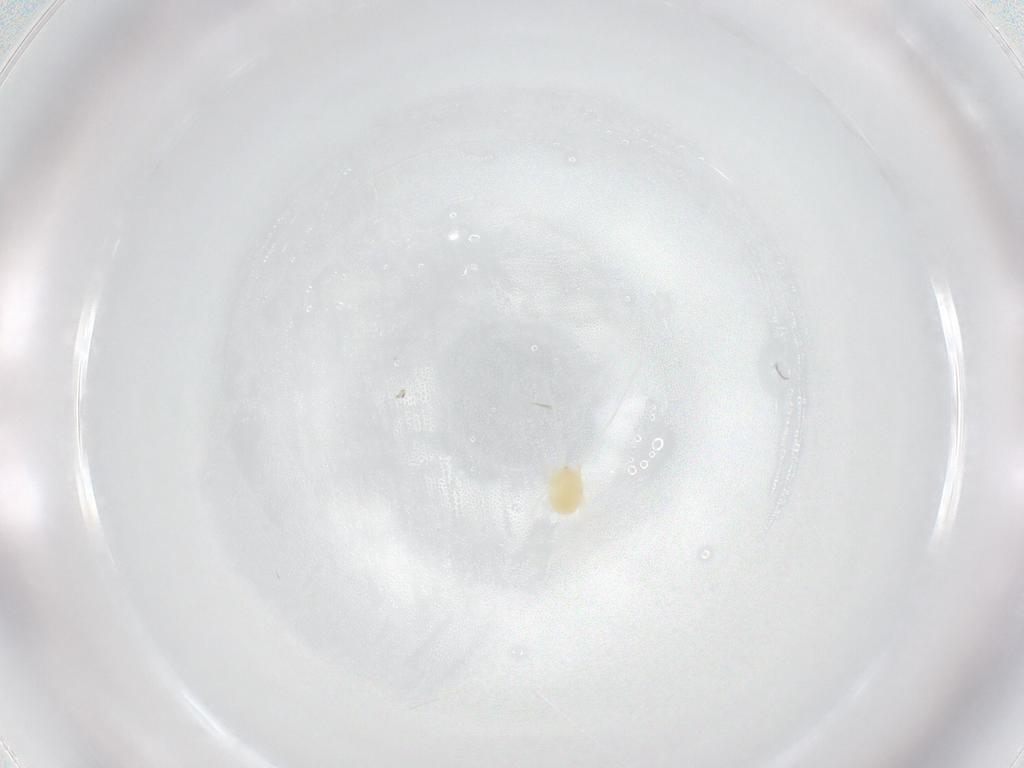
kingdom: Animalia
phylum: Arthropoda
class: Arachnida
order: Trombidiformes
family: Tetranychidae
